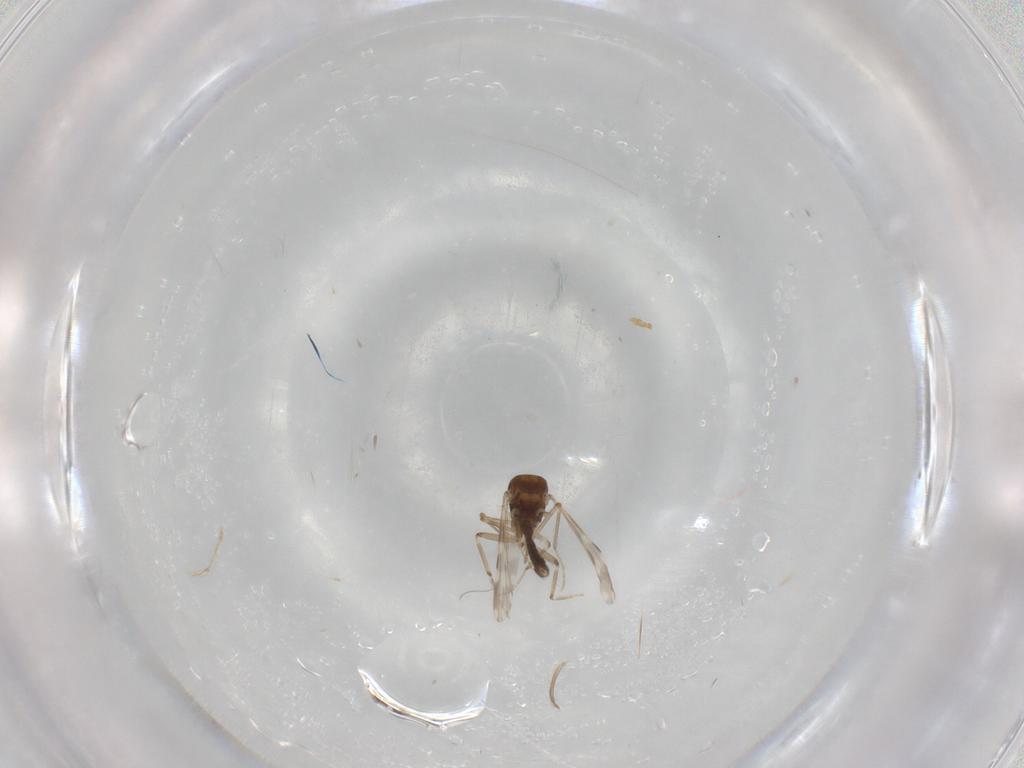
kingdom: Animalia
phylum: Arthropoda
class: Insecta
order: Diptera
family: Ceratopogonidae
